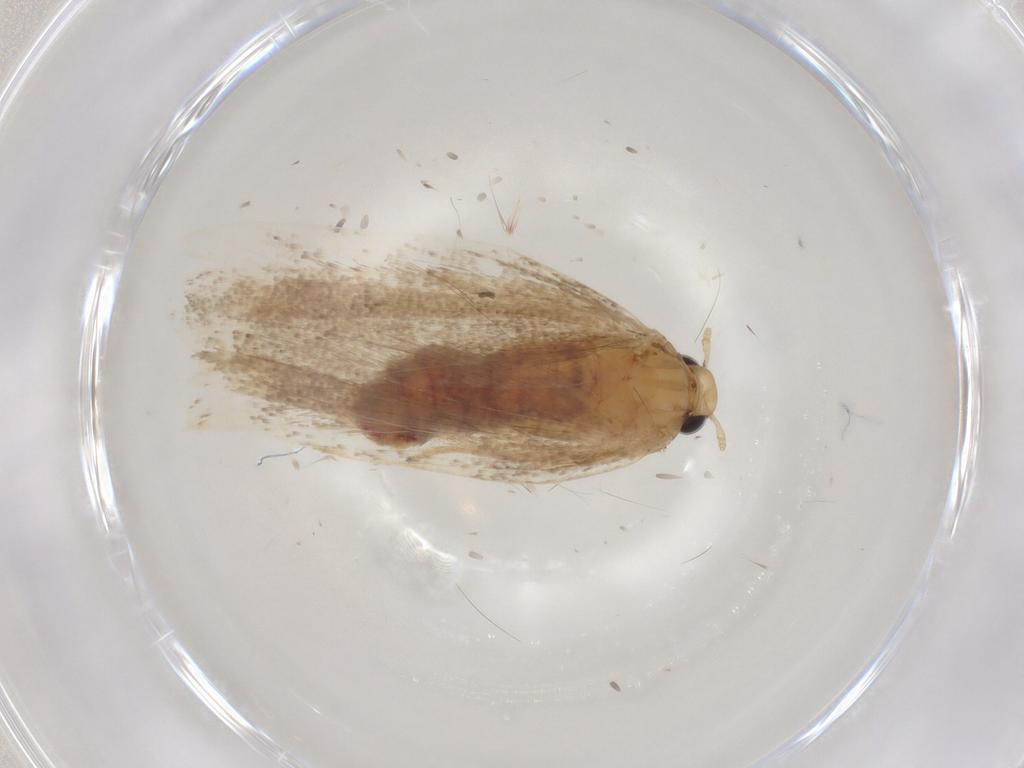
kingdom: Animalia
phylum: Arthropoda
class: Insecta
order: Lepidoptera
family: Lecithoceridae
